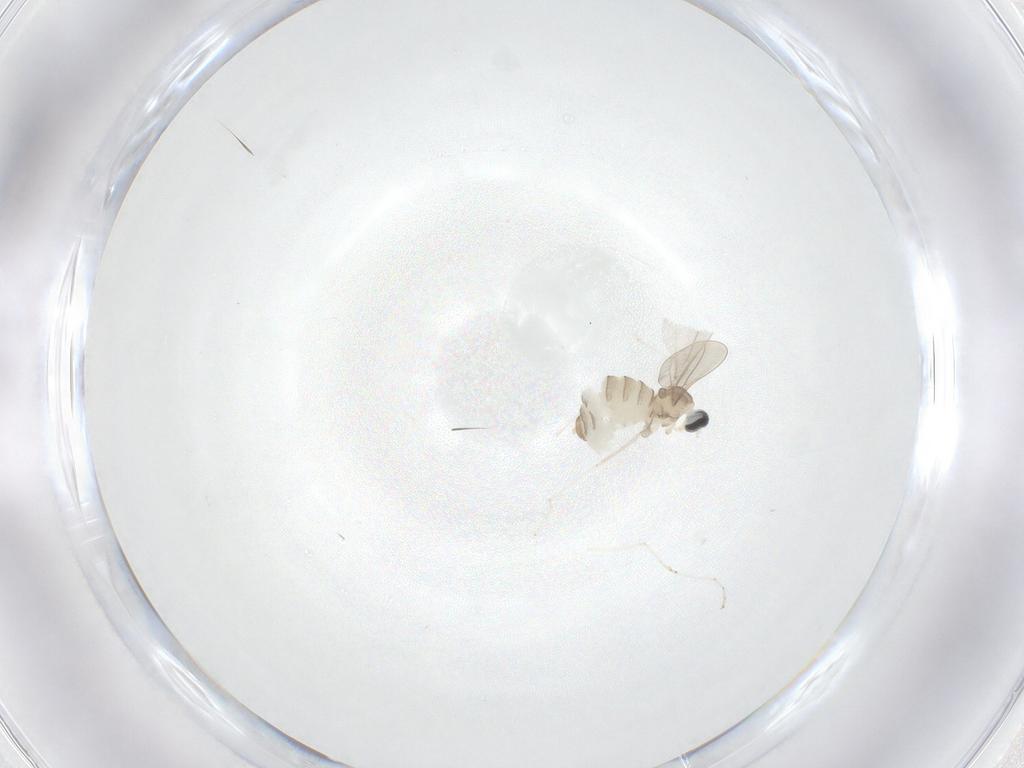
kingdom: Animalia
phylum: Arthropoda
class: Insecta
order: Diptera
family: Cecidomyiidae
